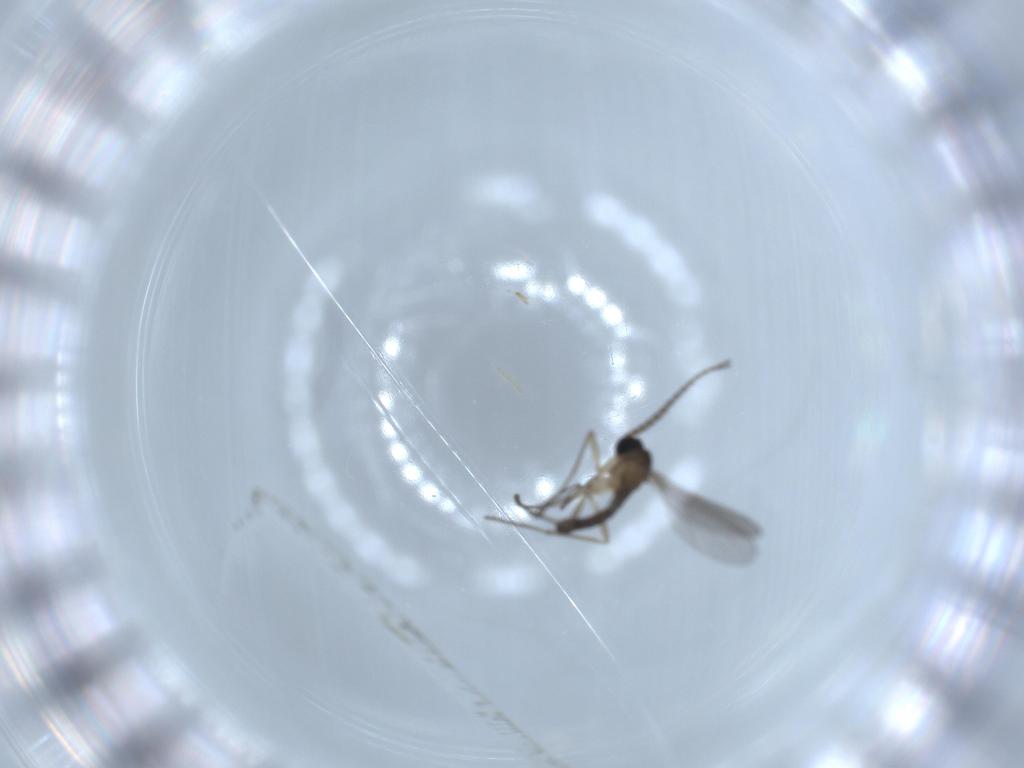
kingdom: Animalia
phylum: Arthropoda
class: Insecta
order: Diptera
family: Sciaridae
